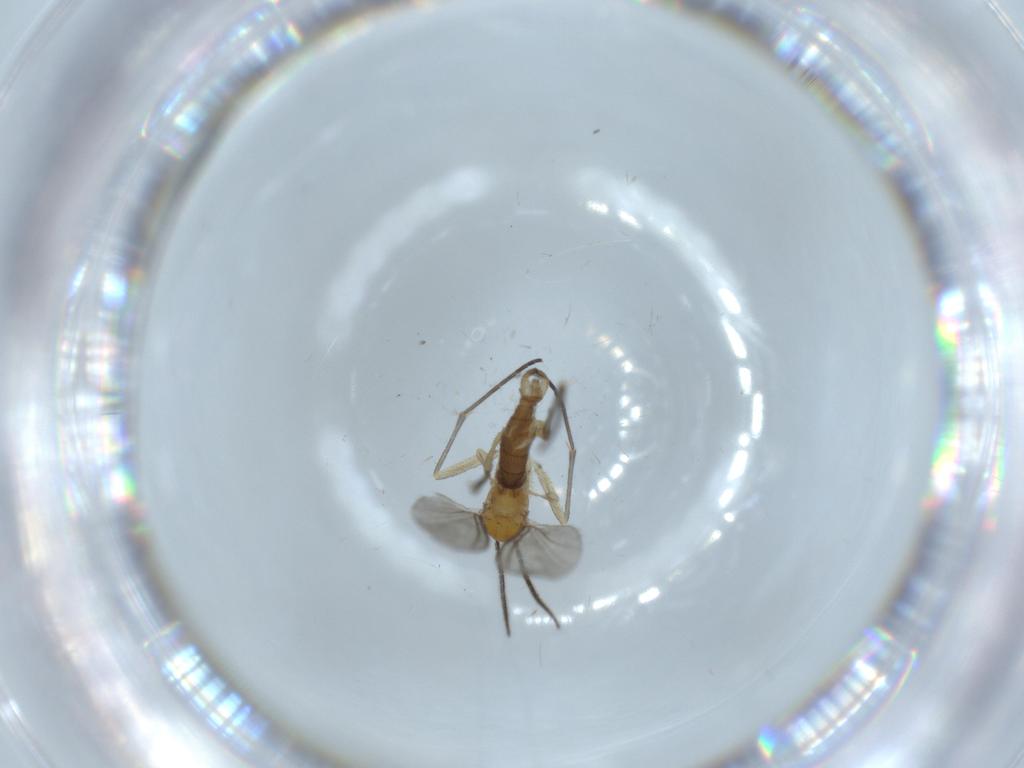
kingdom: Animalia
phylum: Arthropoda
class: Insecta
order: Diptera
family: Sciaridae
